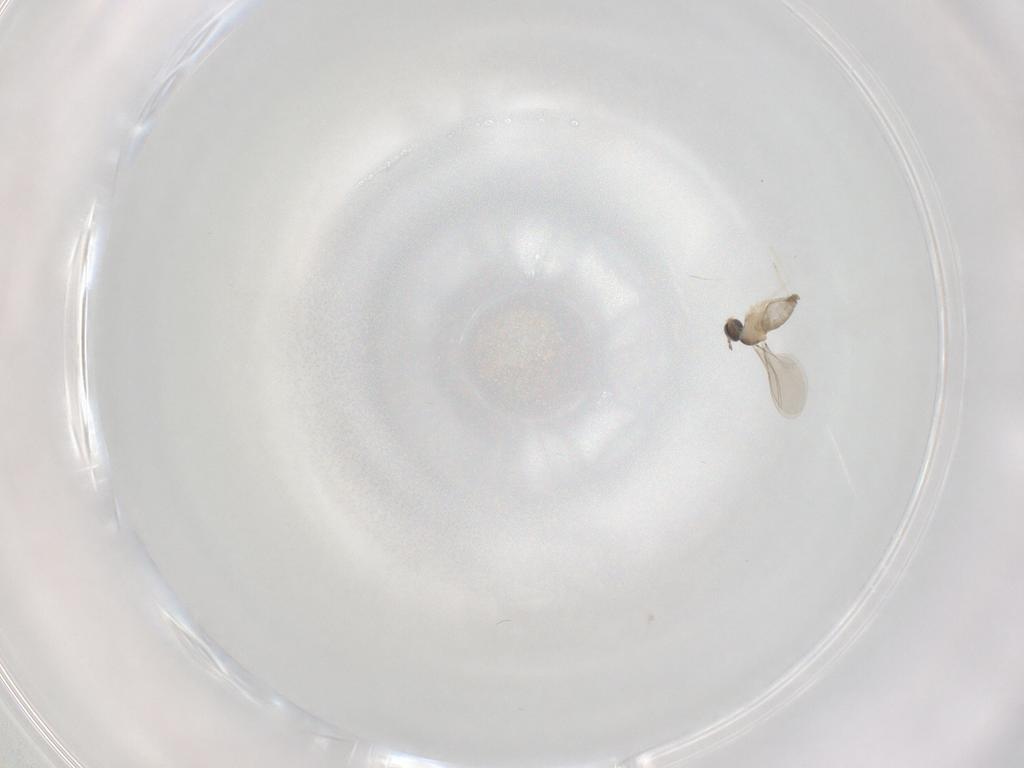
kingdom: Animalia
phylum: Arthropoda
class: Insecta
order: Diptera
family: Cecidomyiidae
